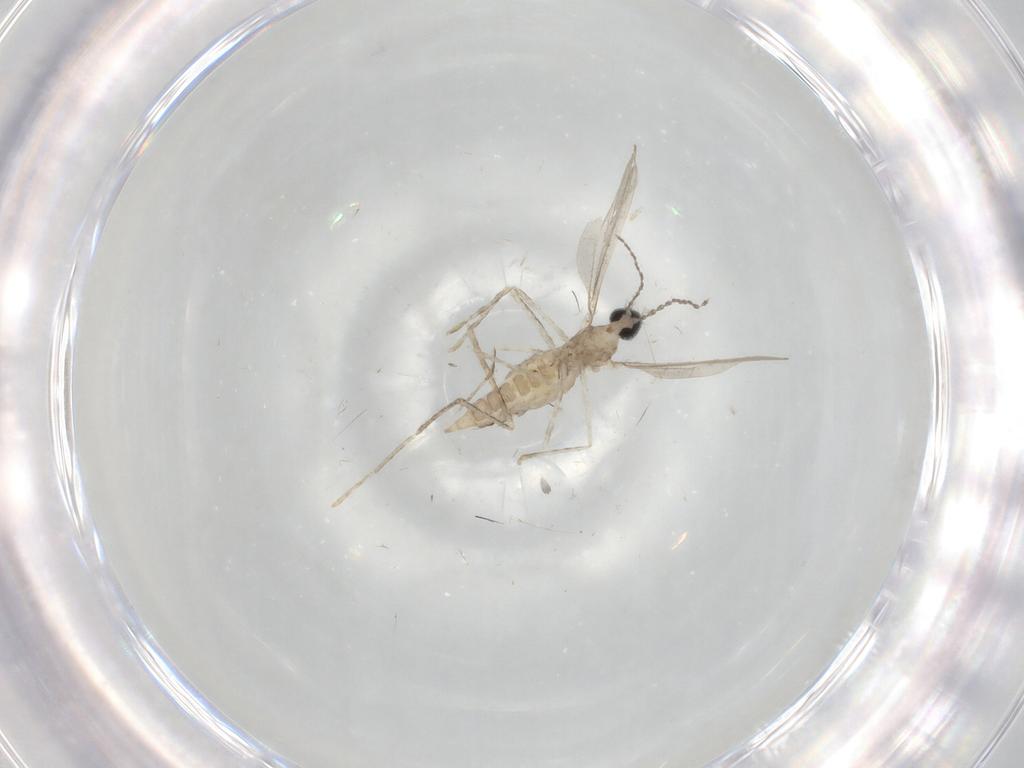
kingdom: Animalia
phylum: Arthropoda
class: Insecta
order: Diptera
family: Cecidomyiidae
